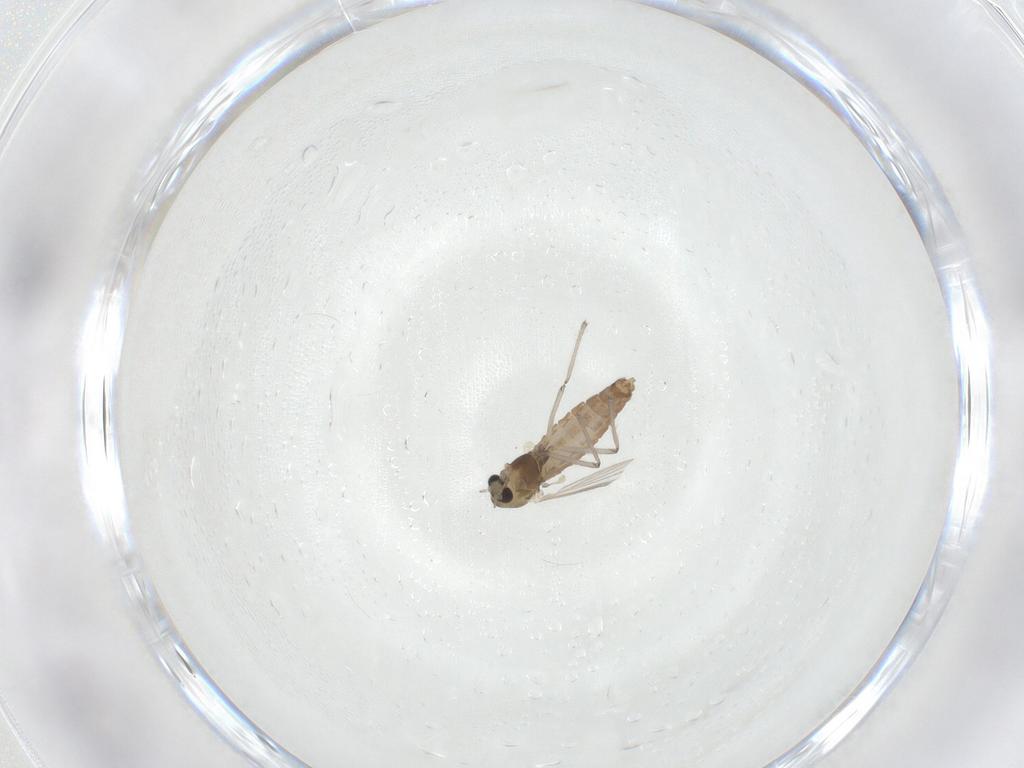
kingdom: Animalia
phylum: Arthropoda
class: Insecta
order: Diptera
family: Chironomidae
